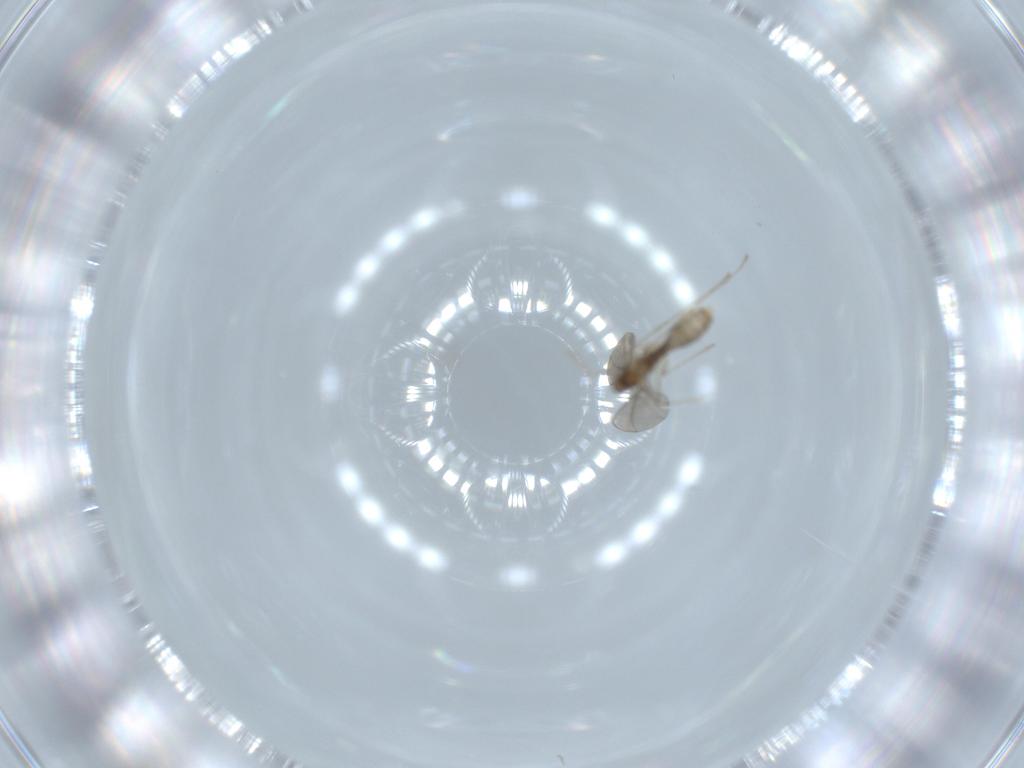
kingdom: Animalia
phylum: Arthropoda
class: Insecta
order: Diptera
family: Cecidomyiidae
